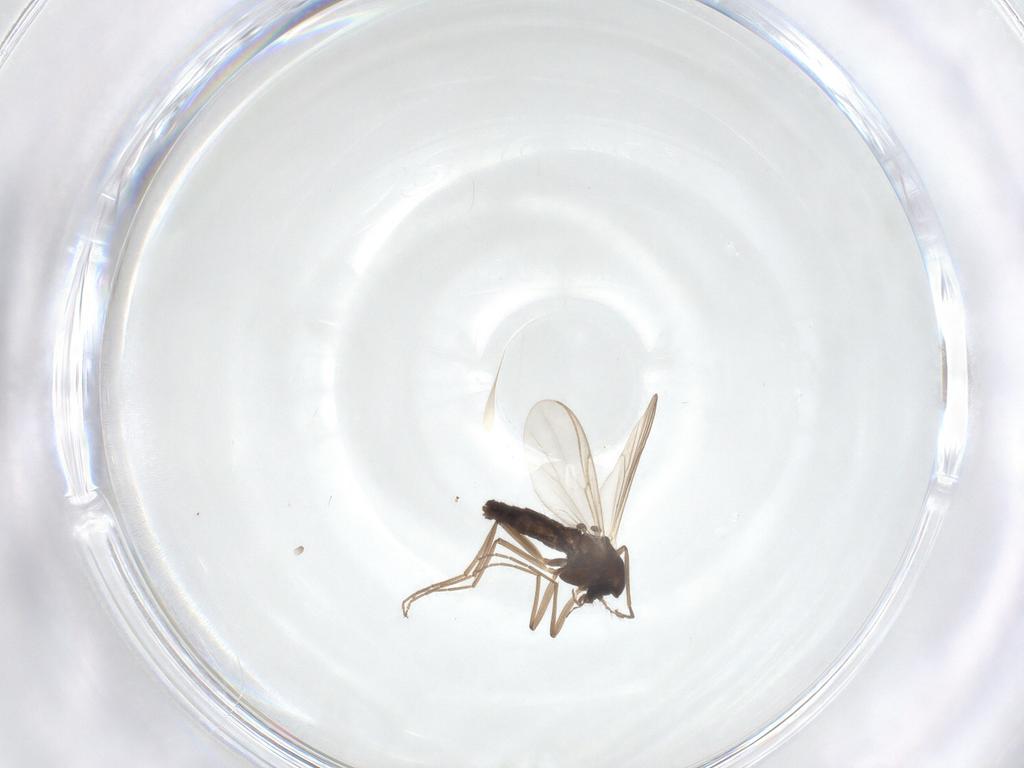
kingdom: Animalia
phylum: Arthropoda
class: Insecta
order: Diptera
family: Chironomidae
